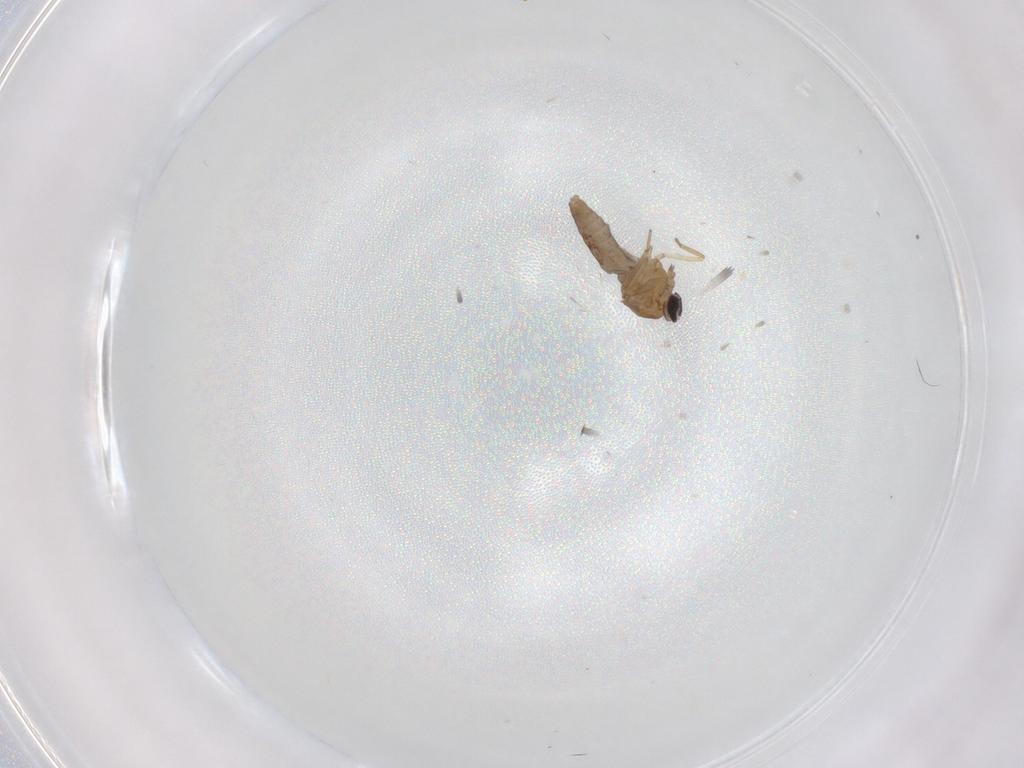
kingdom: Animalia
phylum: Arthropoda
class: Insecta
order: Diptera
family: Ceratopogonidae
